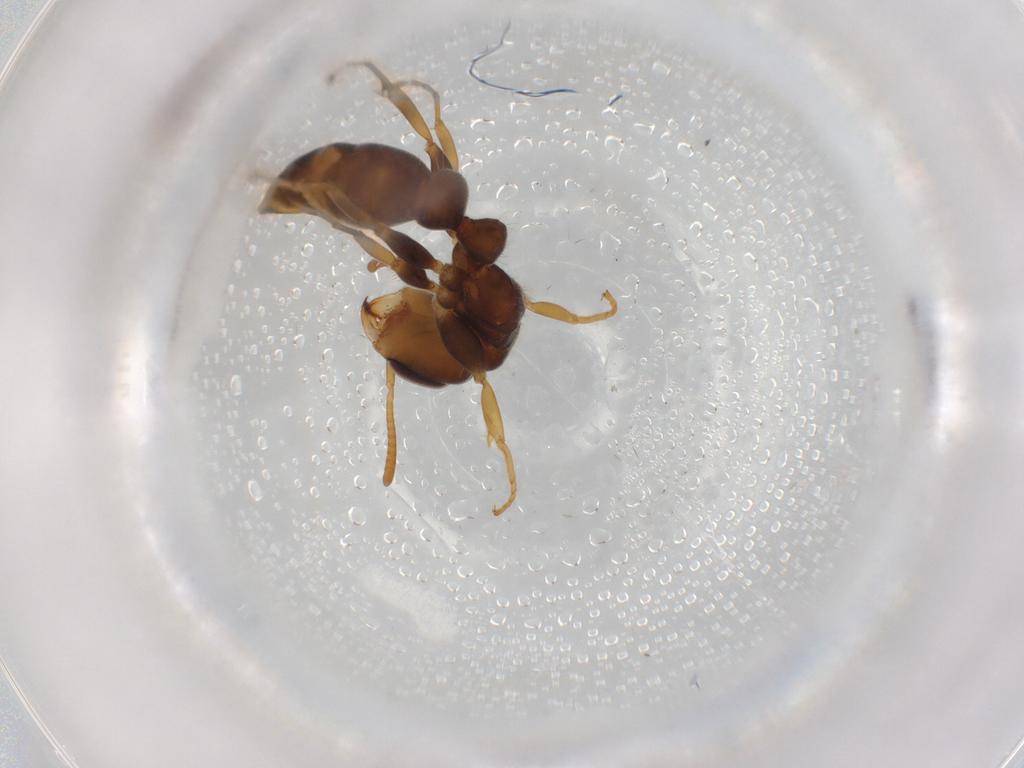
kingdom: Animalia
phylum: Arthropoda
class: Insecta
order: Hymenoptera
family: Formicidae
